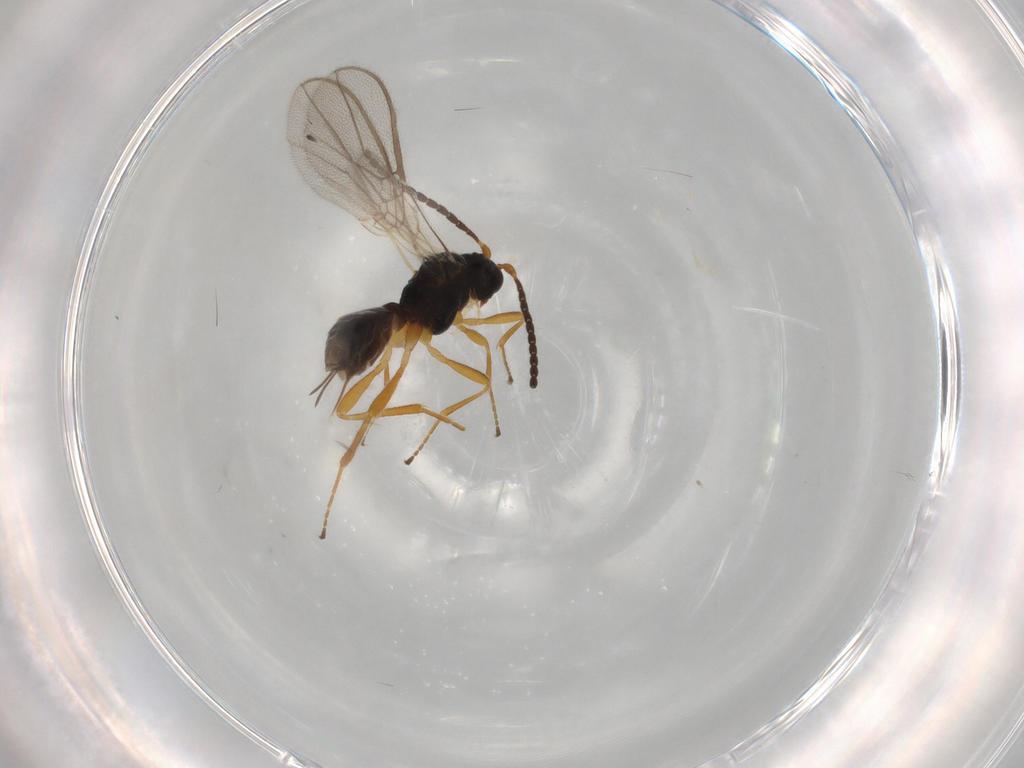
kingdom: Animalia
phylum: Arthropoda
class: Insecta
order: Hymenoptera
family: Braconidae
